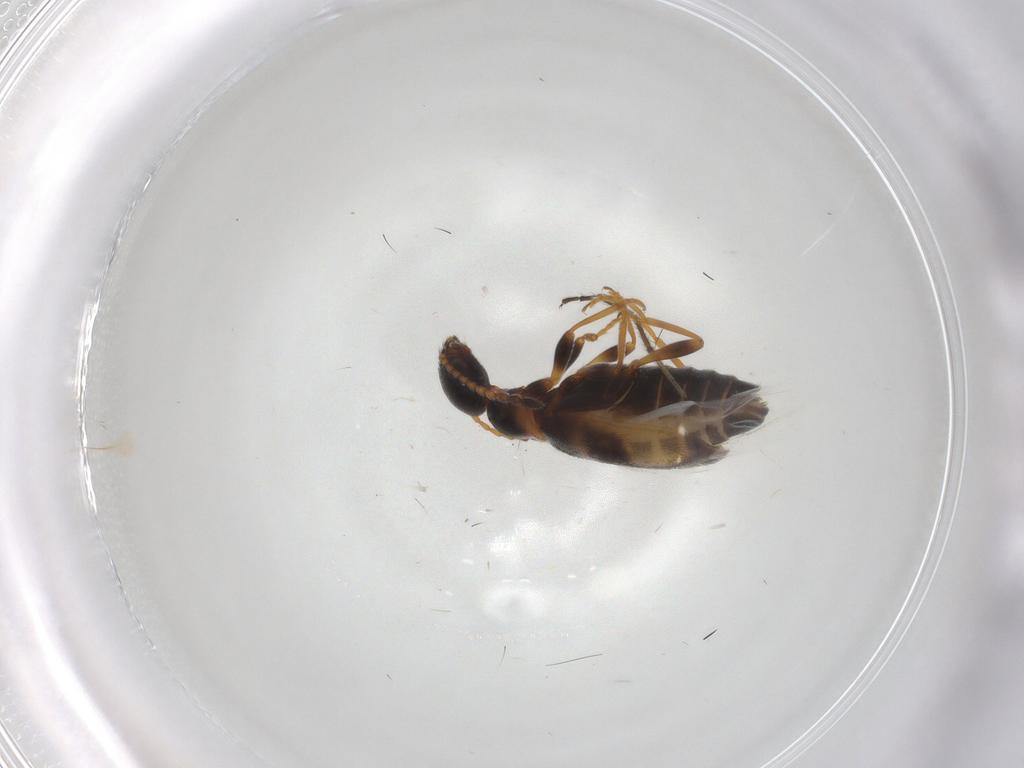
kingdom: Animalia
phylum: Arthropoda
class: Insecta
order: Coleoptera
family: Anthicidae
